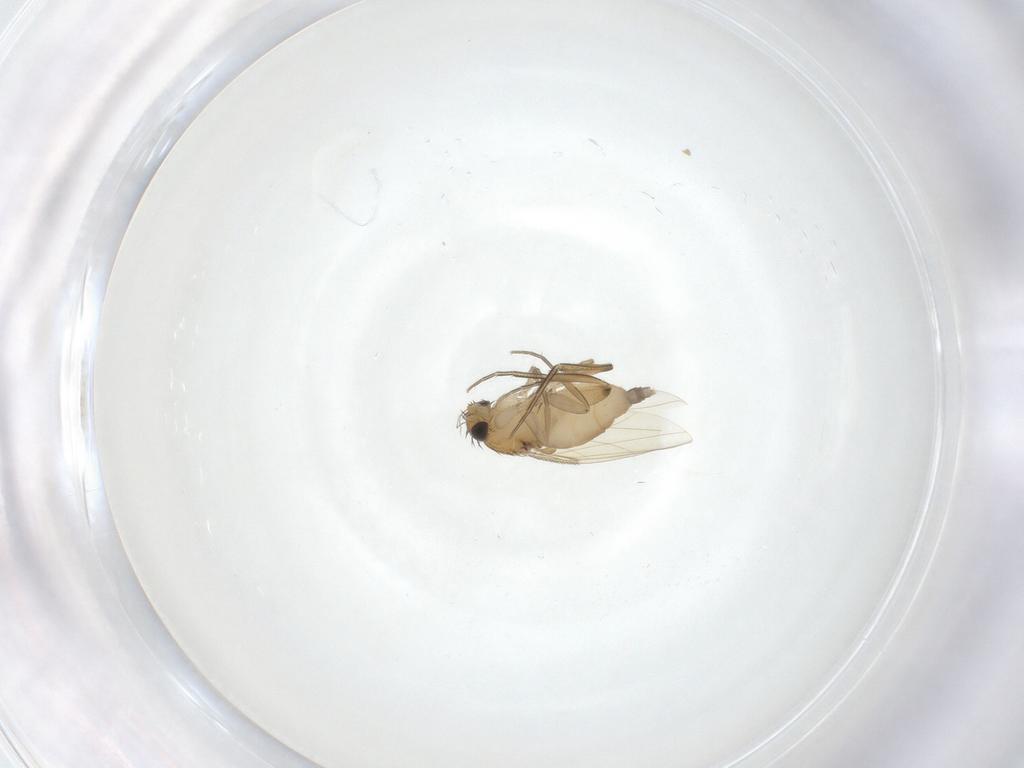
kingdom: Animalia
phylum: Arthropoda
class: Insecta
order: Diptera
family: Phoridae
